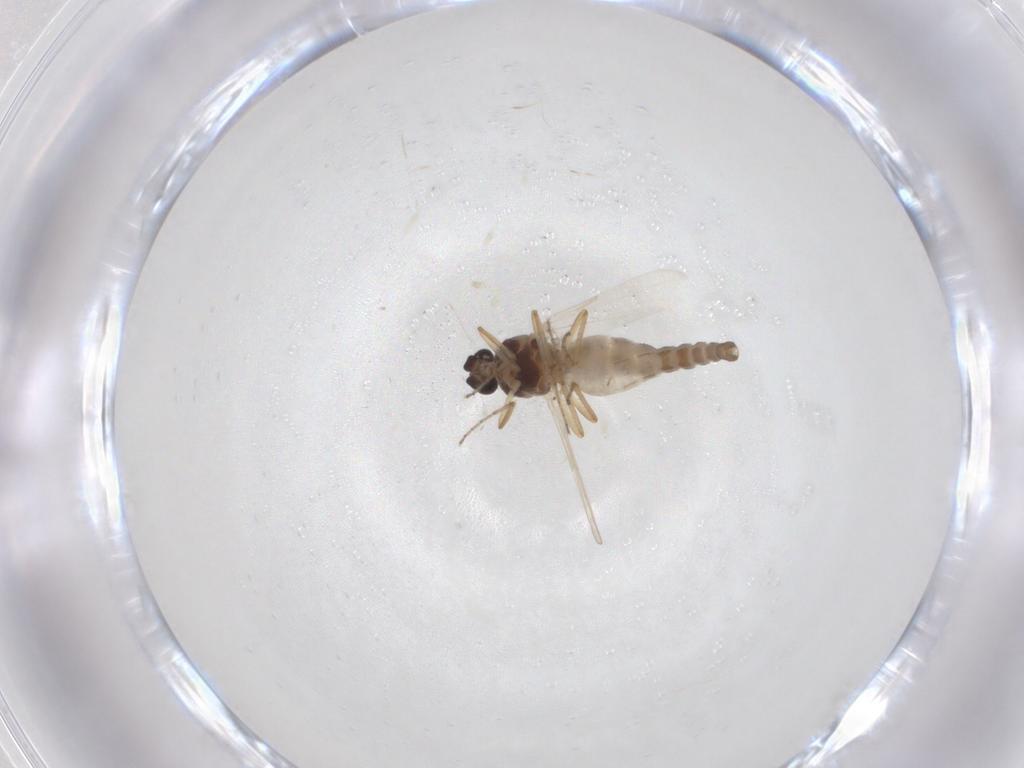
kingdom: Animalia
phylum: Arthropoda
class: Insecta
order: Diptera
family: Ceratopogonidae
